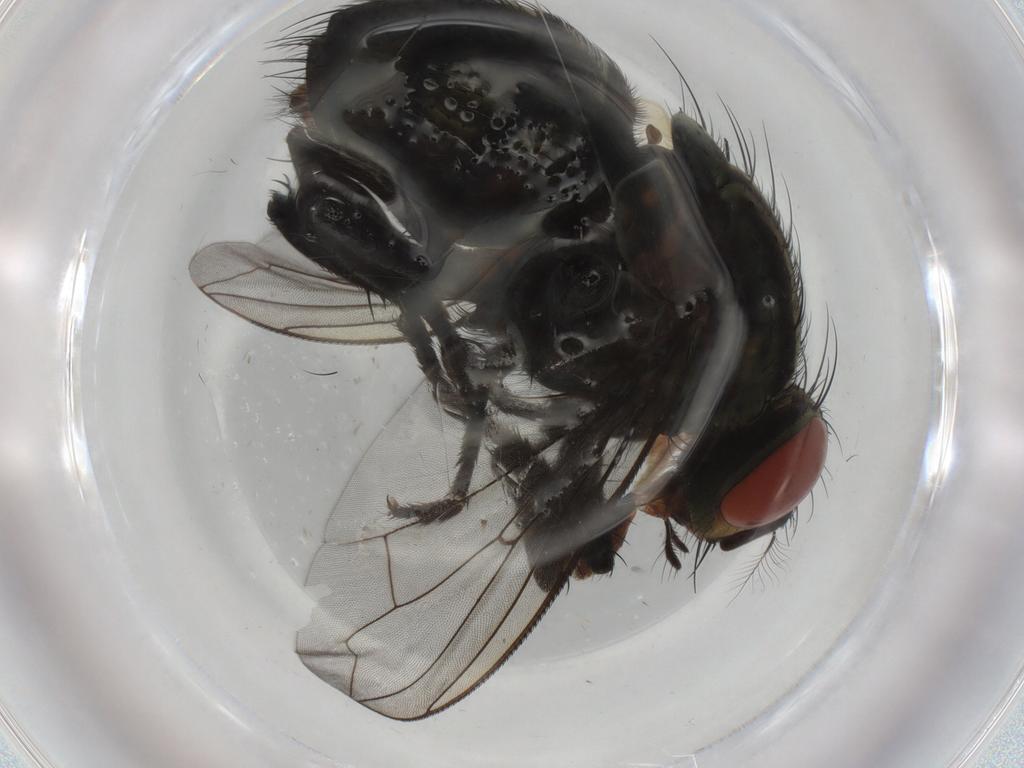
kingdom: Animalia
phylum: Arthropoda
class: Insecta
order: Diptera
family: Sarcophagidae
